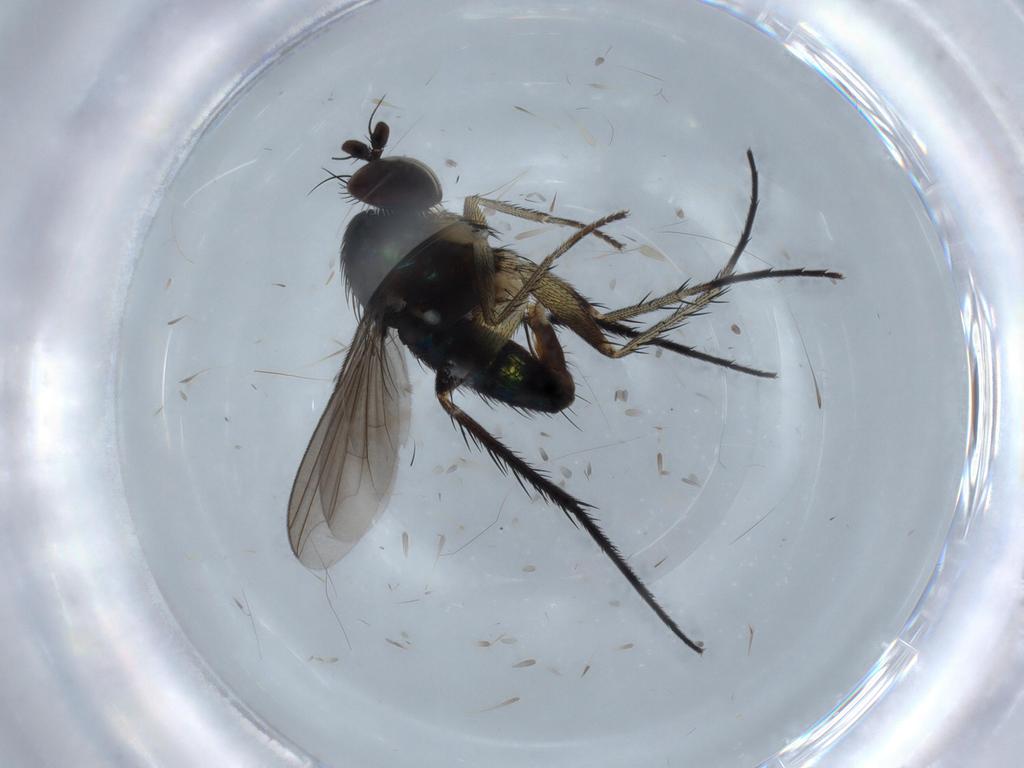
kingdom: Animalia
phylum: Arthropoda
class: Insecta
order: Diptera
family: Dolichopodidae
